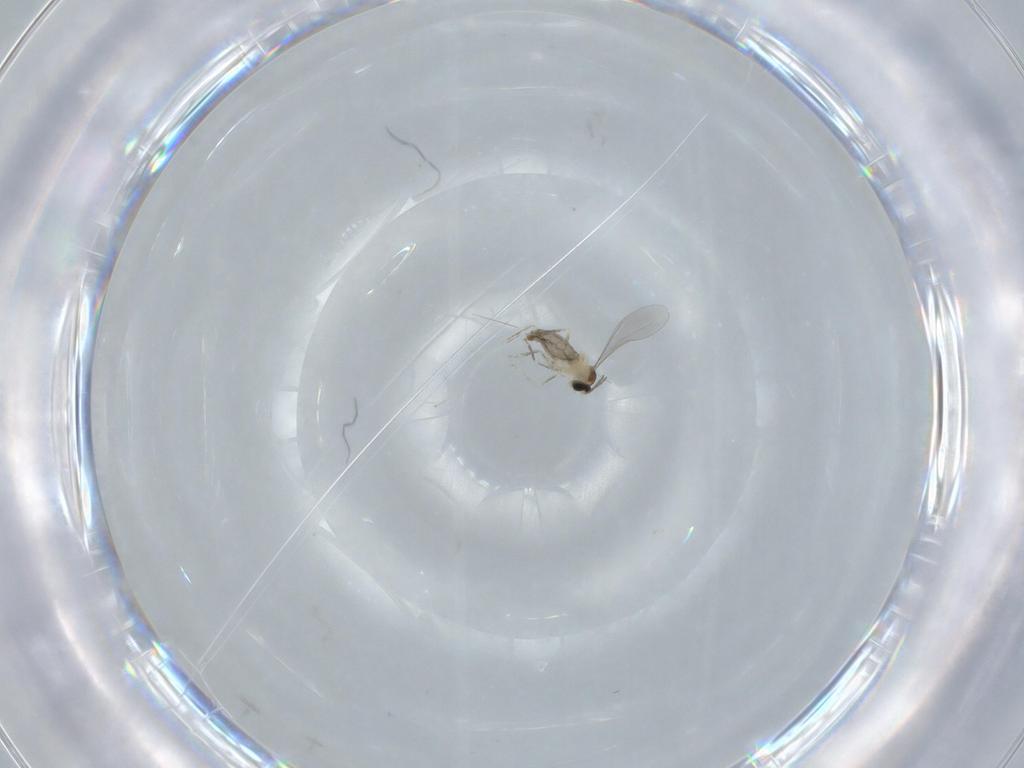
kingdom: Animalia
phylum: Arthropoda
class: Insecta
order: Diptera
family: Phoridae
